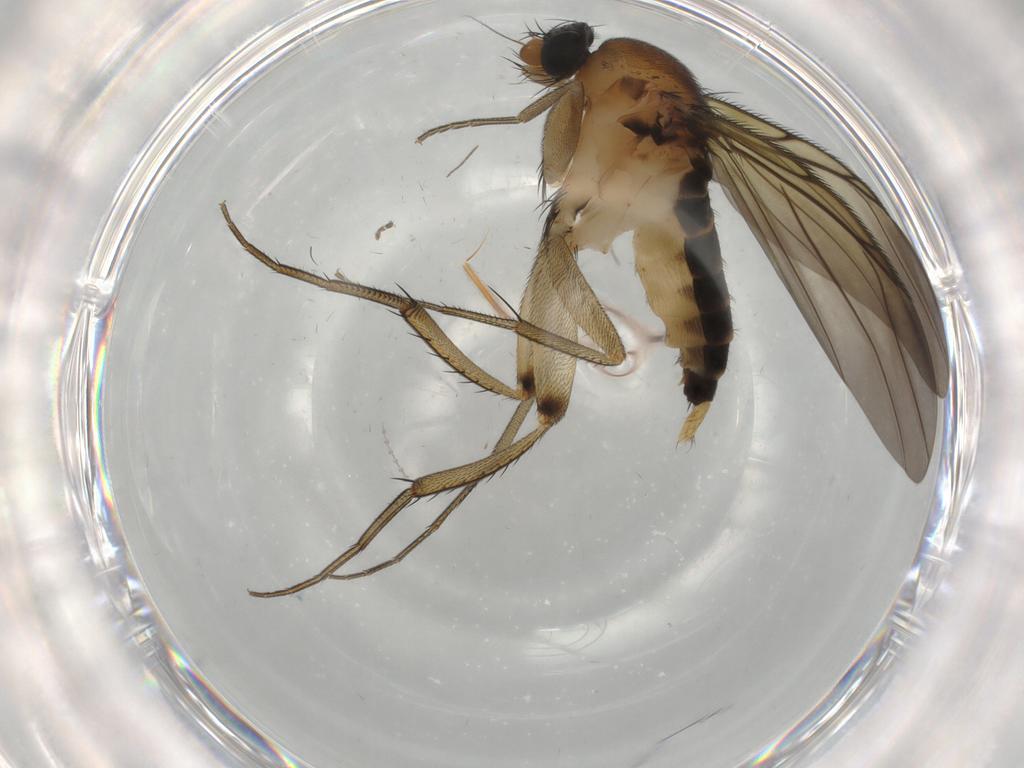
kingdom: Animalia
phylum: Arthropoda
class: Insecta
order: Diptera
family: Phoridae
